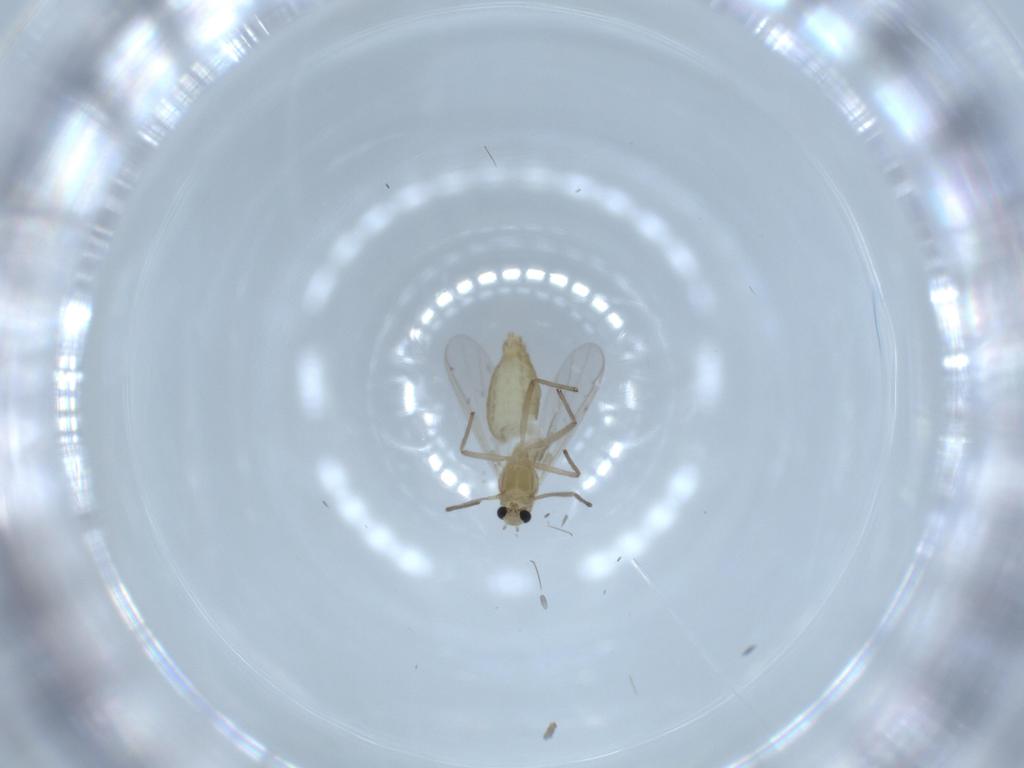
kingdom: Animalia
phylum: Arthropoda
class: Insecta
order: Diptera
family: Chironomidae
